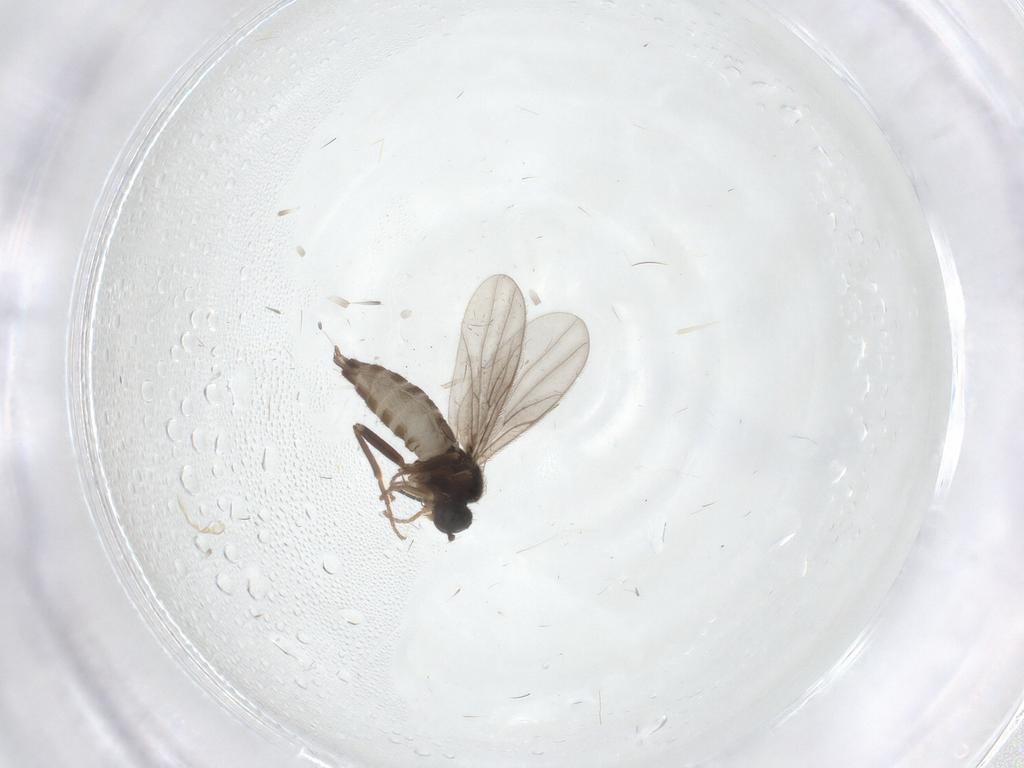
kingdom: Animalia
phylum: Arthropoda
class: Insecta
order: Diptera
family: Hybotidae
